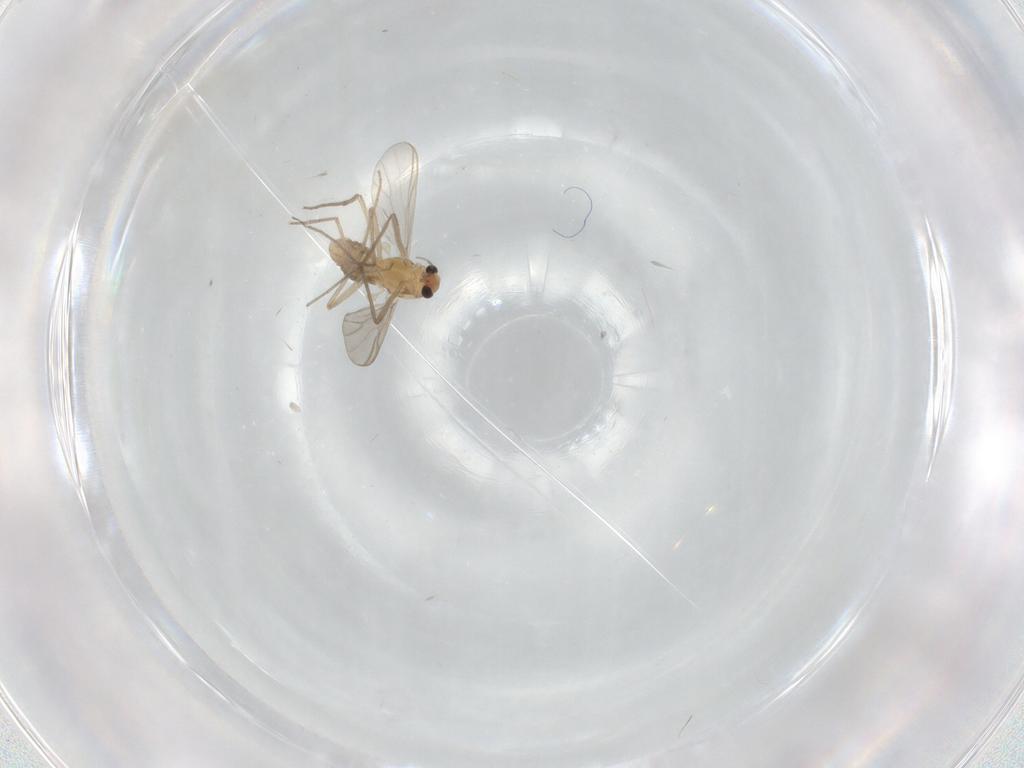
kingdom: Animalia
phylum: Arthropoda
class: Insecta
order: Diptera
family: Chironomidae
